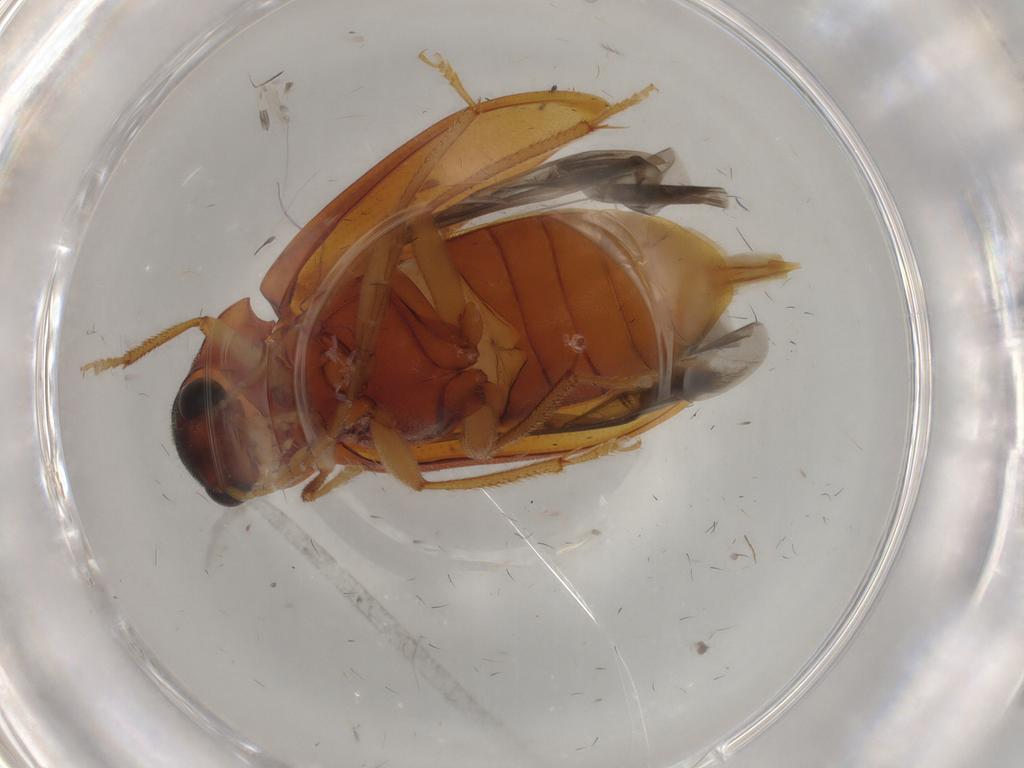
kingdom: Animalia
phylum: Arthropoda
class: Insecta
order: Coleoptera
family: Ptilodactylidae
